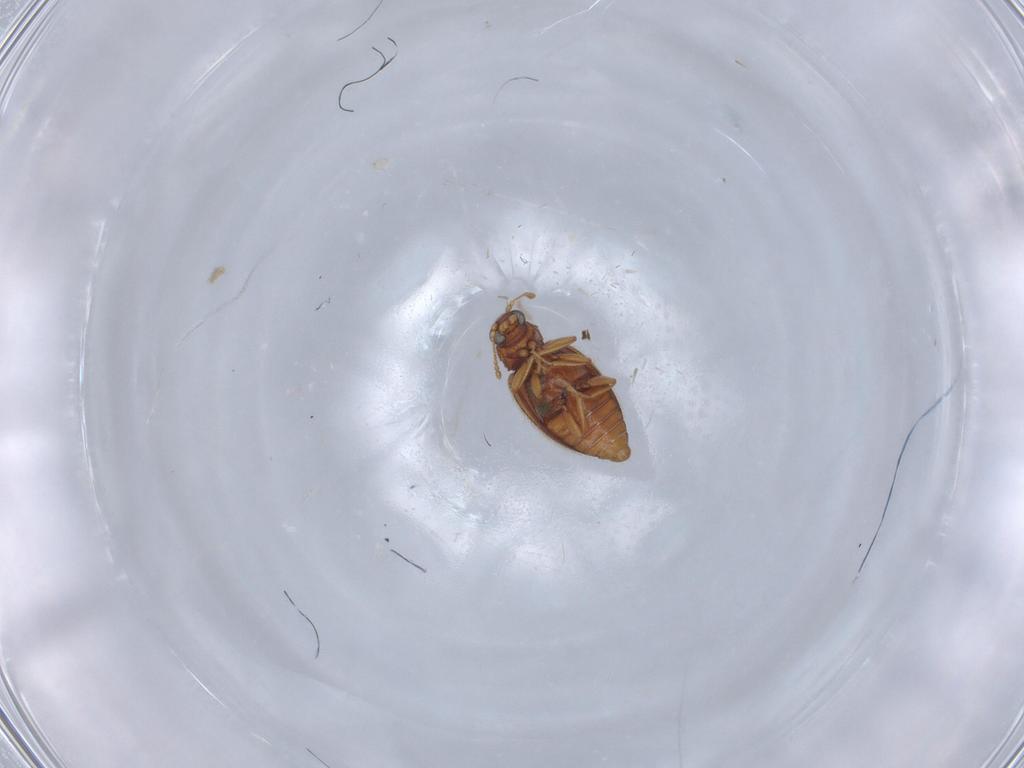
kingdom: Animalia
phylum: Arthropoda
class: Insecta
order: Coleoptera
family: Latridiidae
